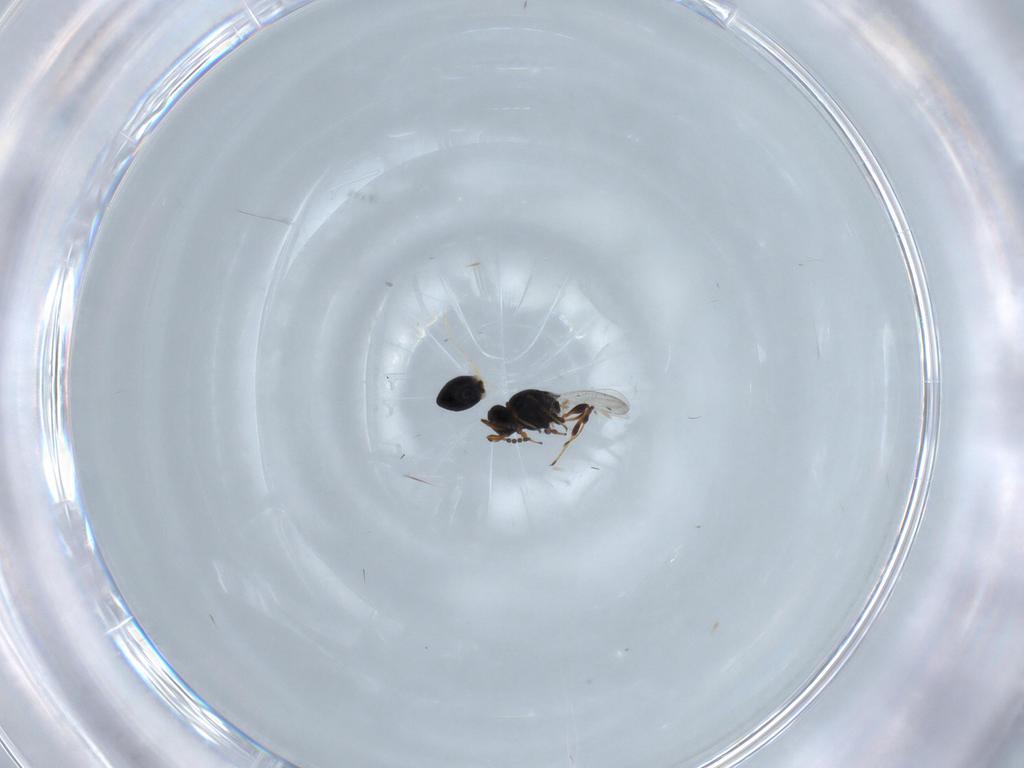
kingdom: Animalia
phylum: Arthropoda
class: Insecta
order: Hymenoptera
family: Platygastridae
